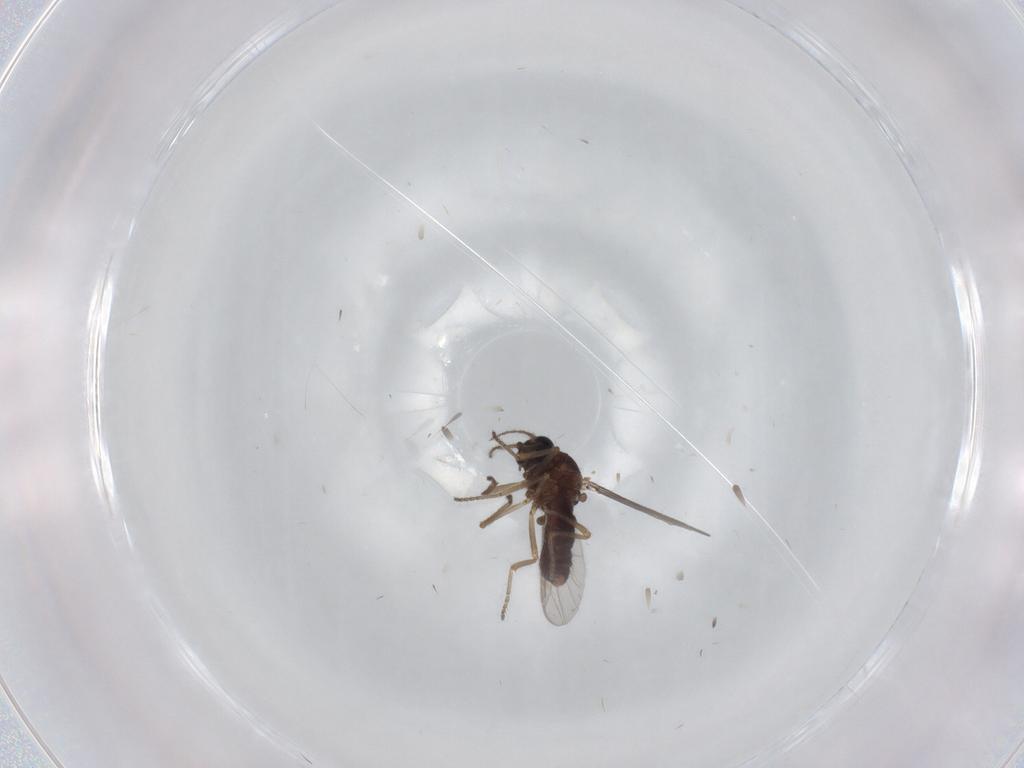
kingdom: Animalia
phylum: Arthropoda
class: Insecta
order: Diptera
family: Ceratopogonidae
